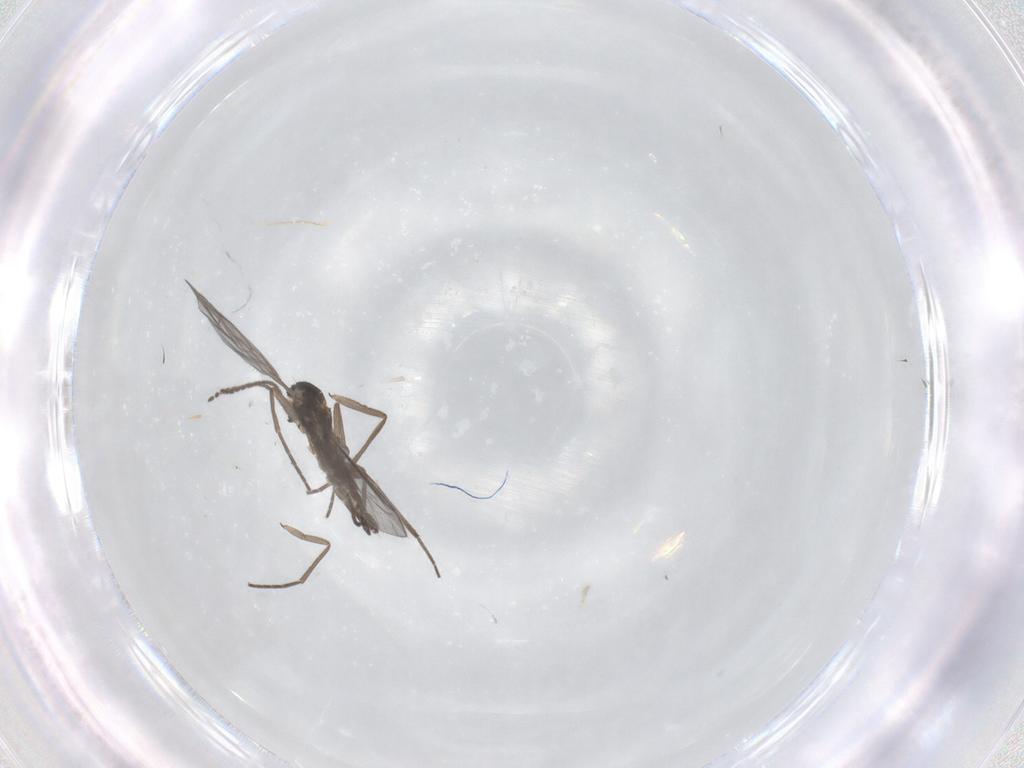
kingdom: Animalia
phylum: Arthropoda
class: Insecta
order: Diptera
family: Sciaridae
